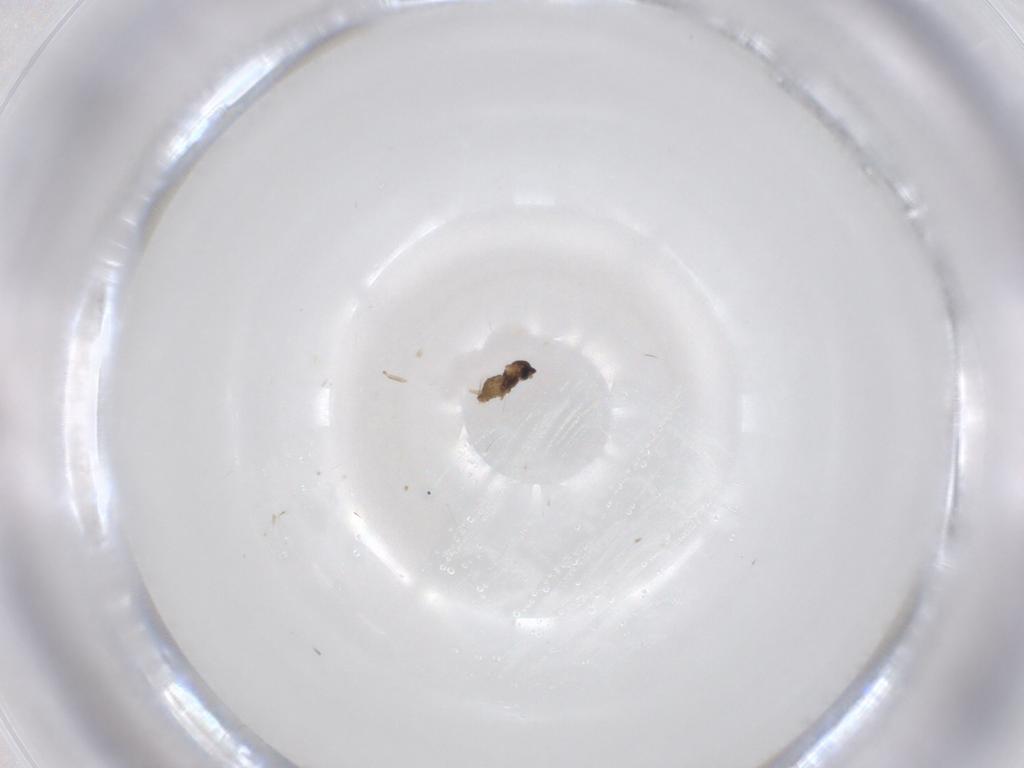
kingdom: Animalia
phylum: Arthropoda
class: Insecta
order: Diptera
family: Cecidomyiidae
